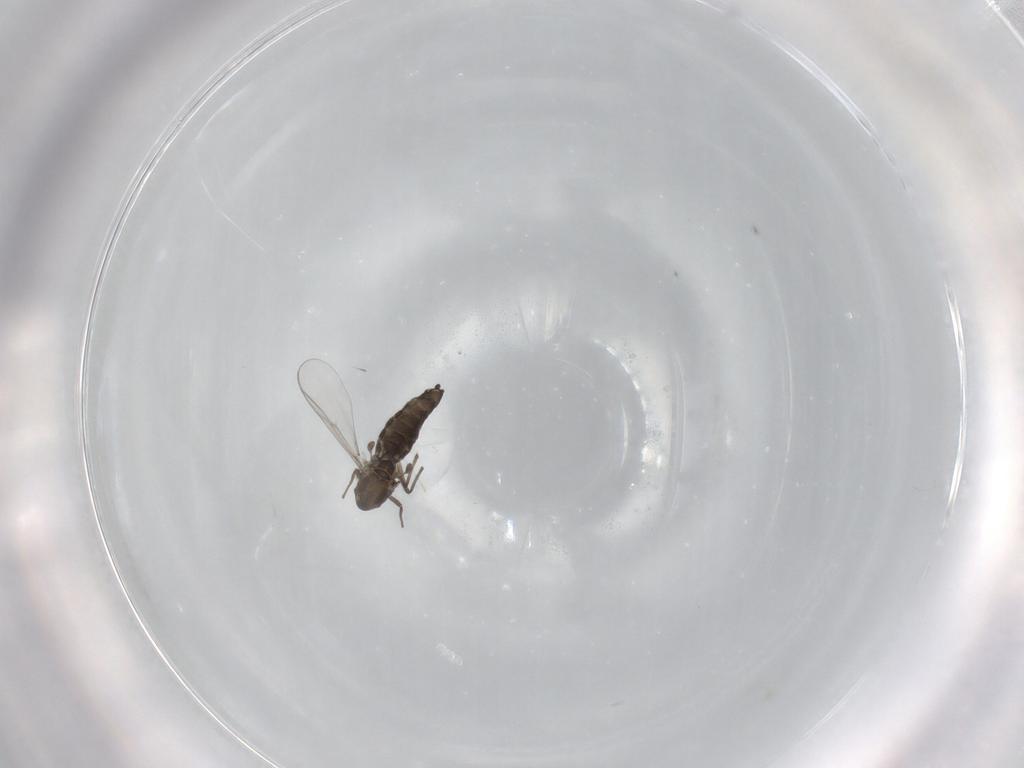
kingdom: Animalia
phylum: Arthropoda
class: Insecta
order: Diptera
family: Chironomidae
